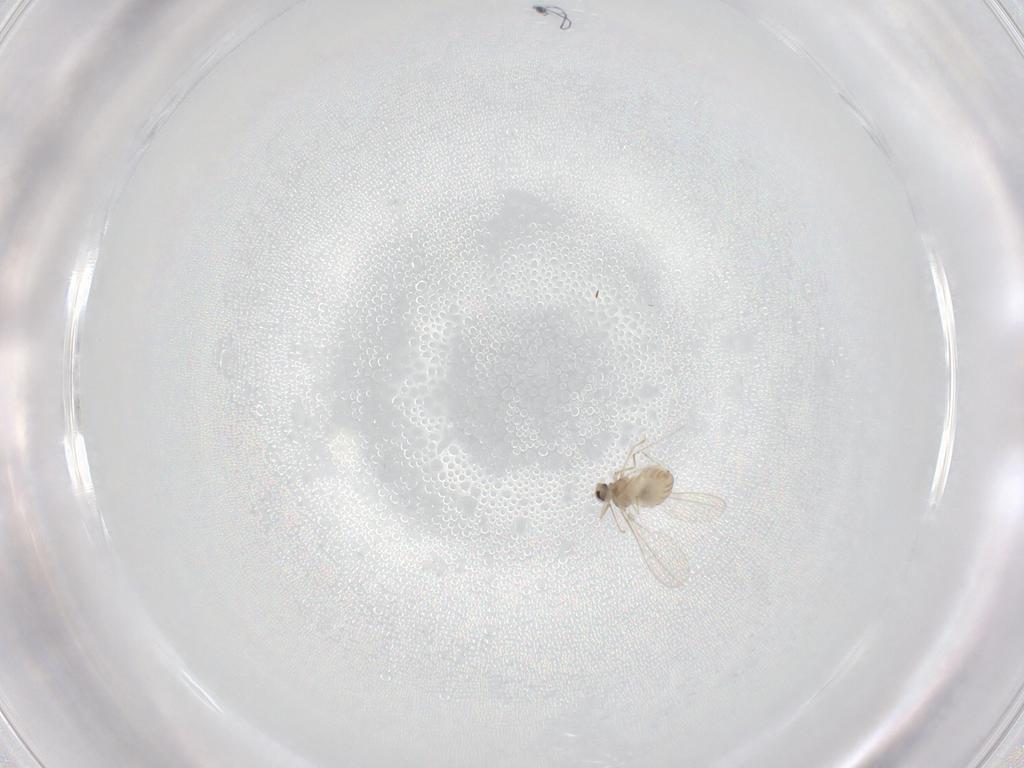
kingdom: Animalia
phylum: Arthropoda
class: Insecta
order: Diptera
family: Cecidomyiidae
